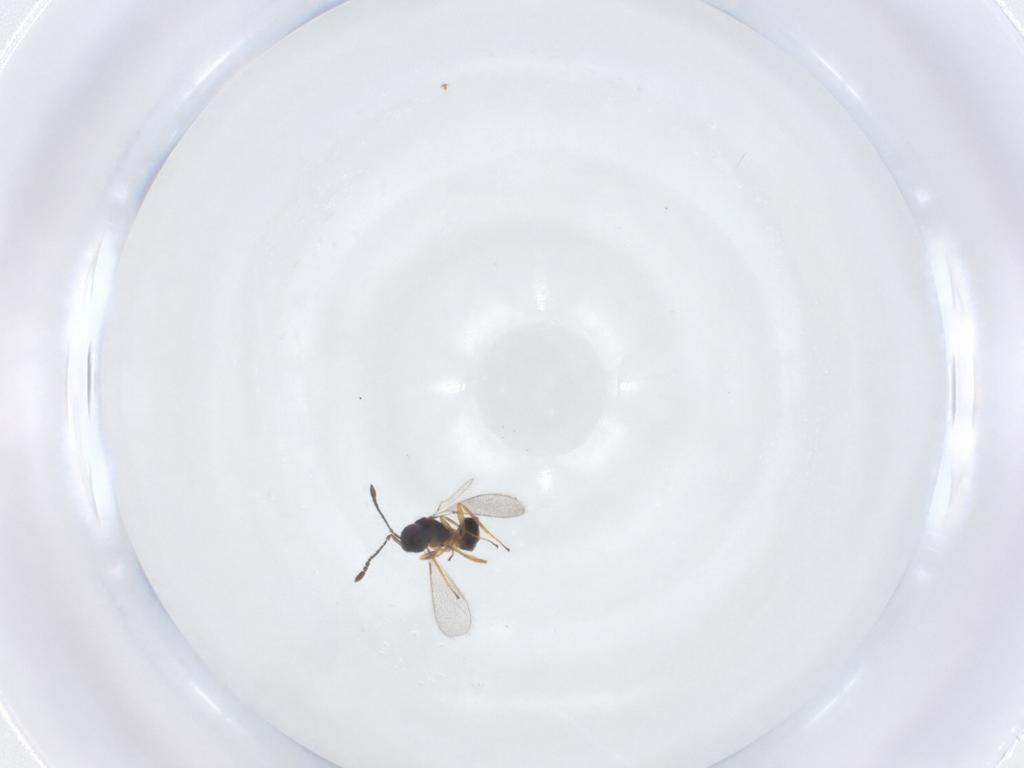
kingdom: Animalia
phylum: Arthropoda
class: Insecta
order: Hymenoptera
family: Mymaridae
